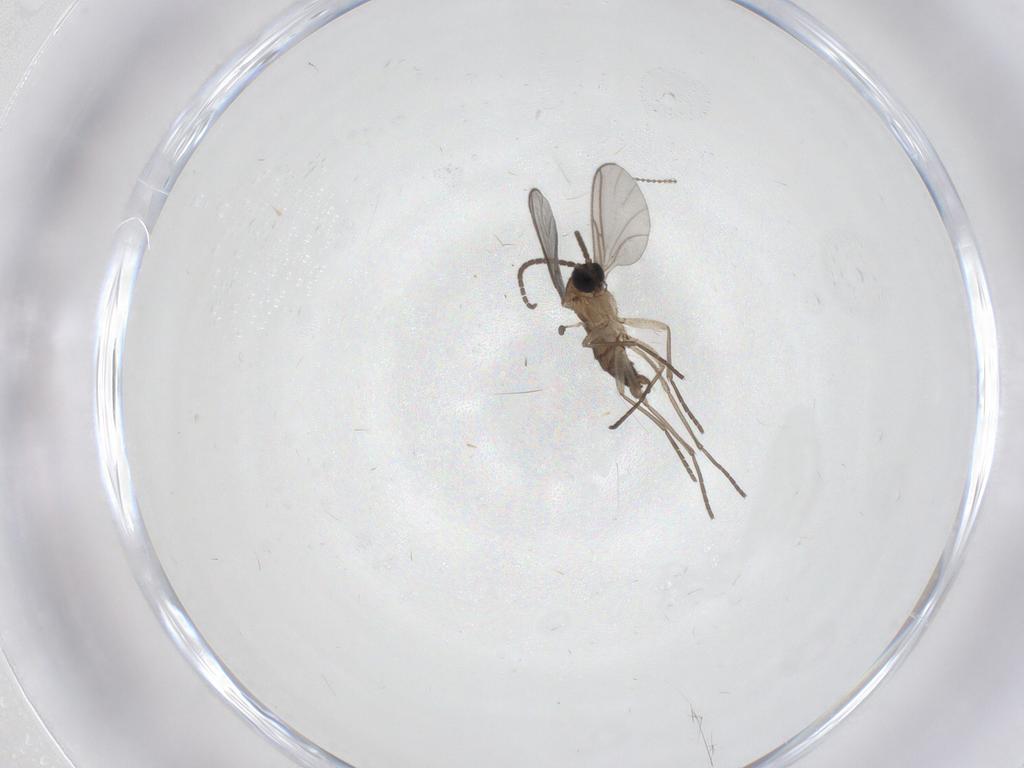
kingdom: Animalia
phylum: Arthropoda
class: Insecta
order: Diptera
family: Sciaridae
